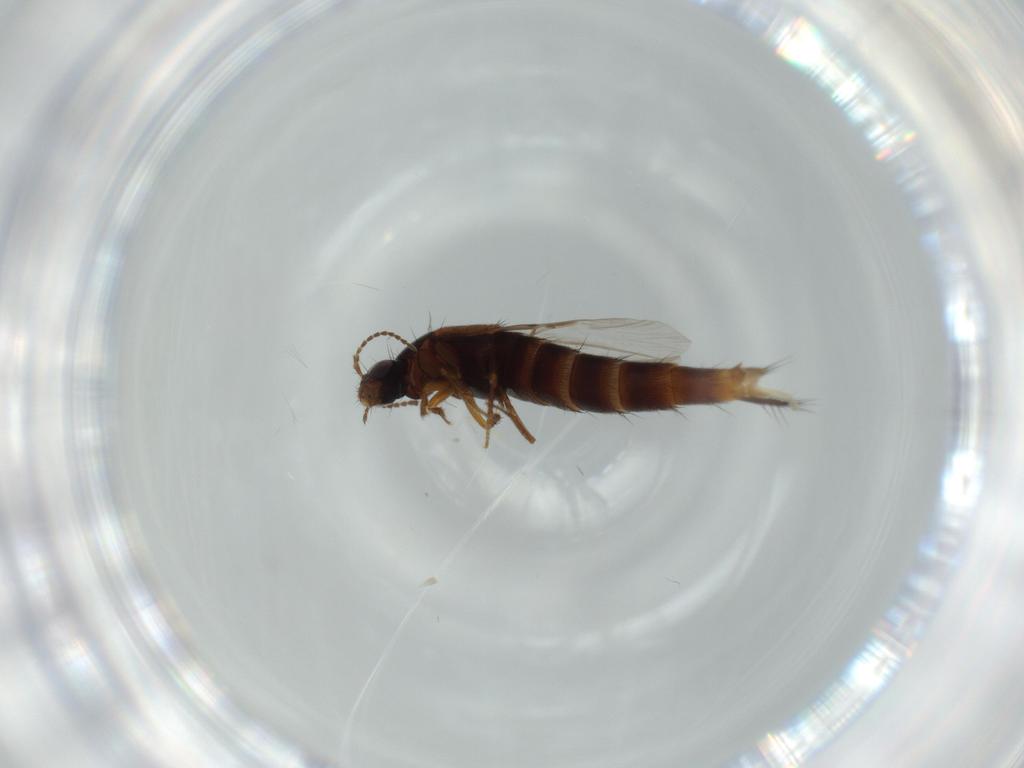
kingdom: Animalia
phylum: Arthropoda
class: Insecta
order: Coleoptera
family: Staphylinidae
